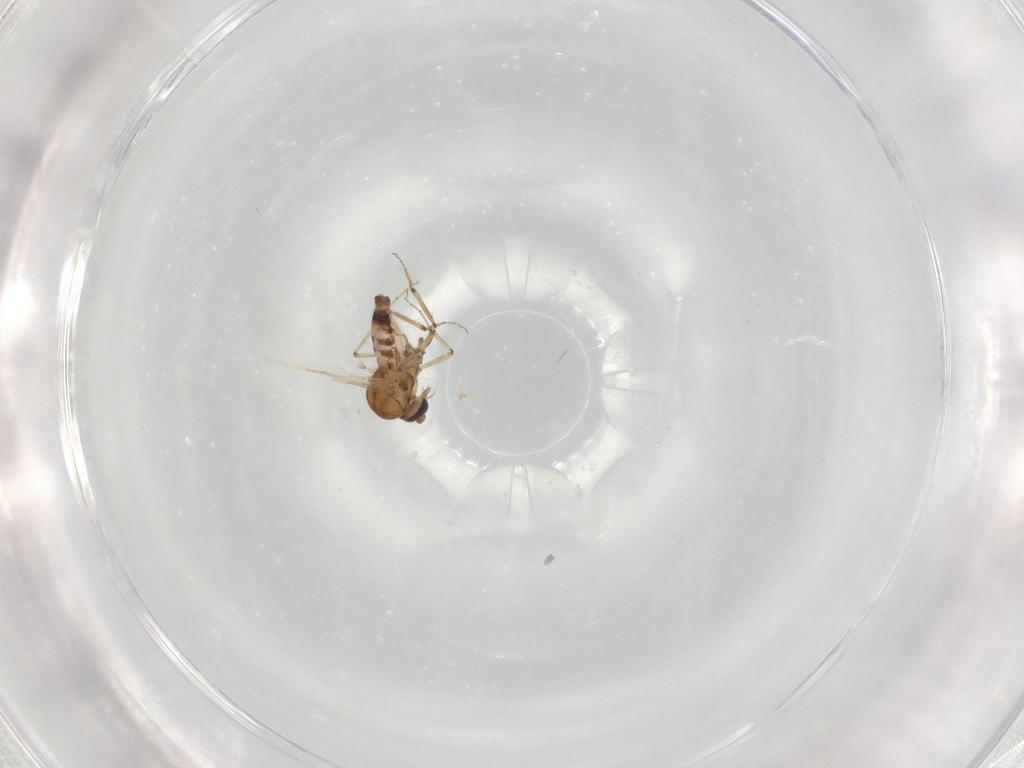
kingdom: Animalia
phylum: Arthropoda
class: Insecta
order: Diptera
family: Ceratopogonidae
